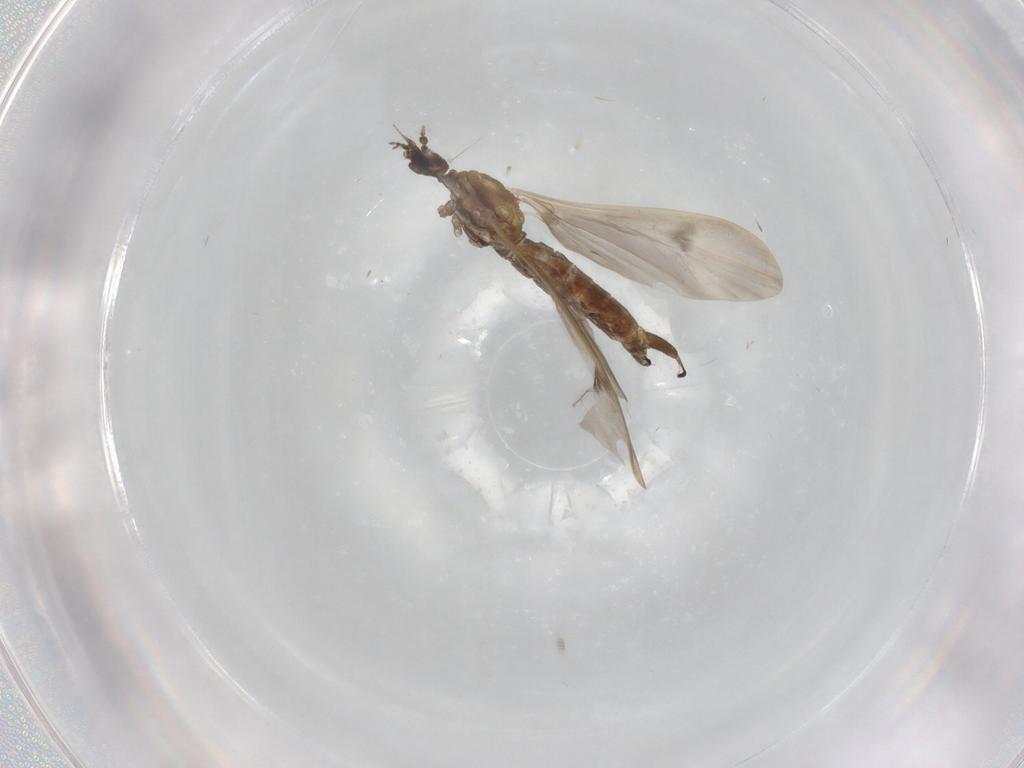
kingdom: Animalia
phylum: Arthropoda
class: Insecta
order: Diptera
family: Limoniidae
